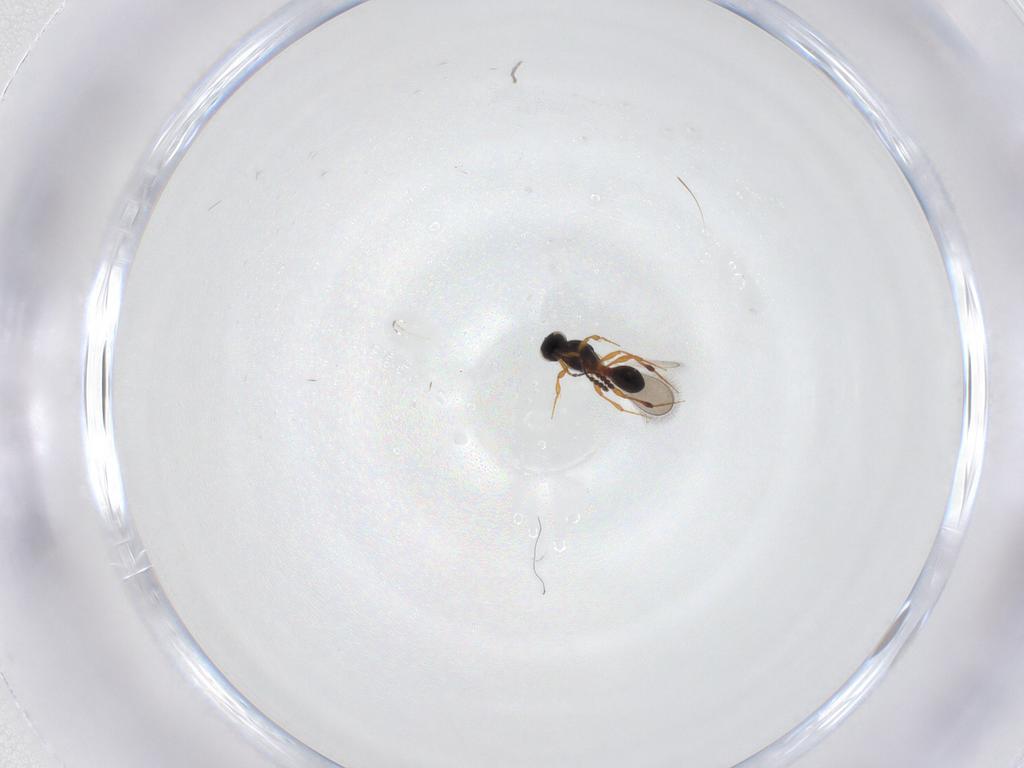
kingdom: Animalia
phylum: Arthropoda
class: Insecta
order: Hymenoptera
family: Platygastridae
